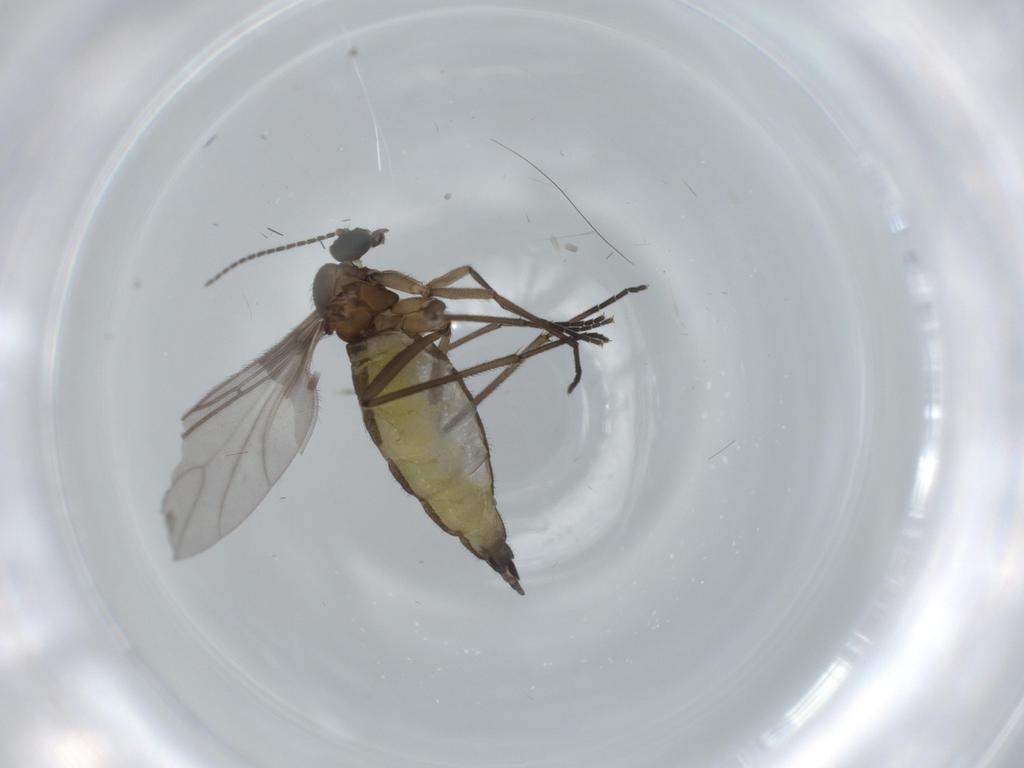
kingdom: Animalia
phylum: Arthropoda
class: Insecta
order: Diptera
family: Sciaridae
